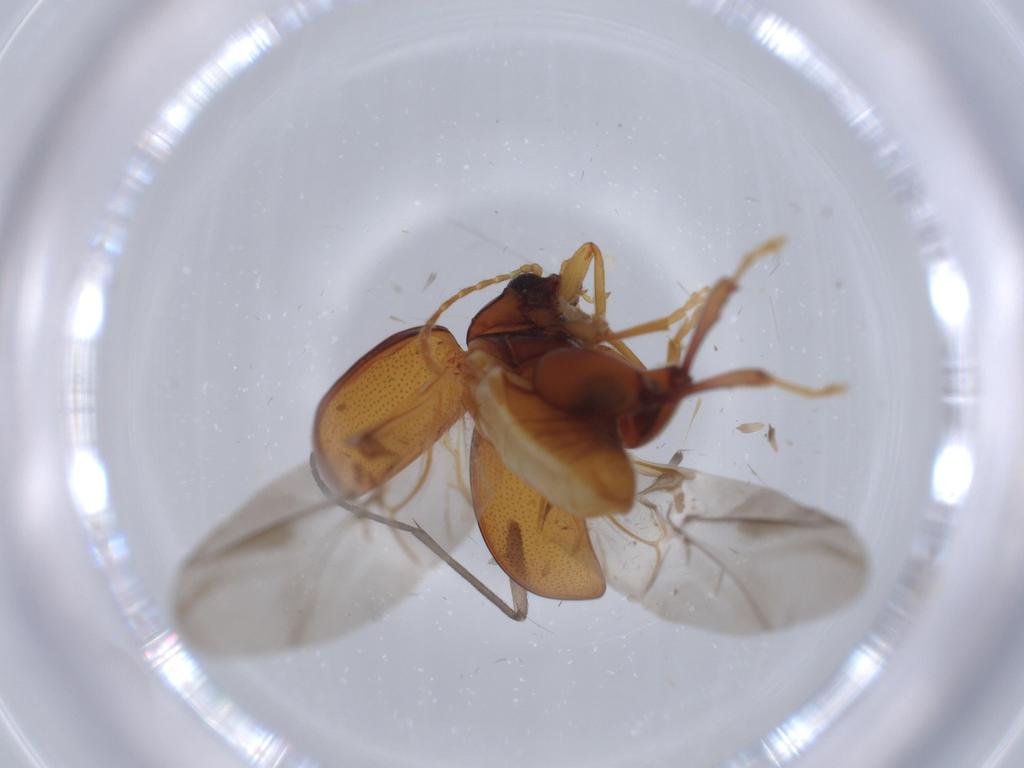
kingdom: Animalia
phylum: Arthropoda
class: Insecta
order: Coleoptera
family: Chrysomelidae
